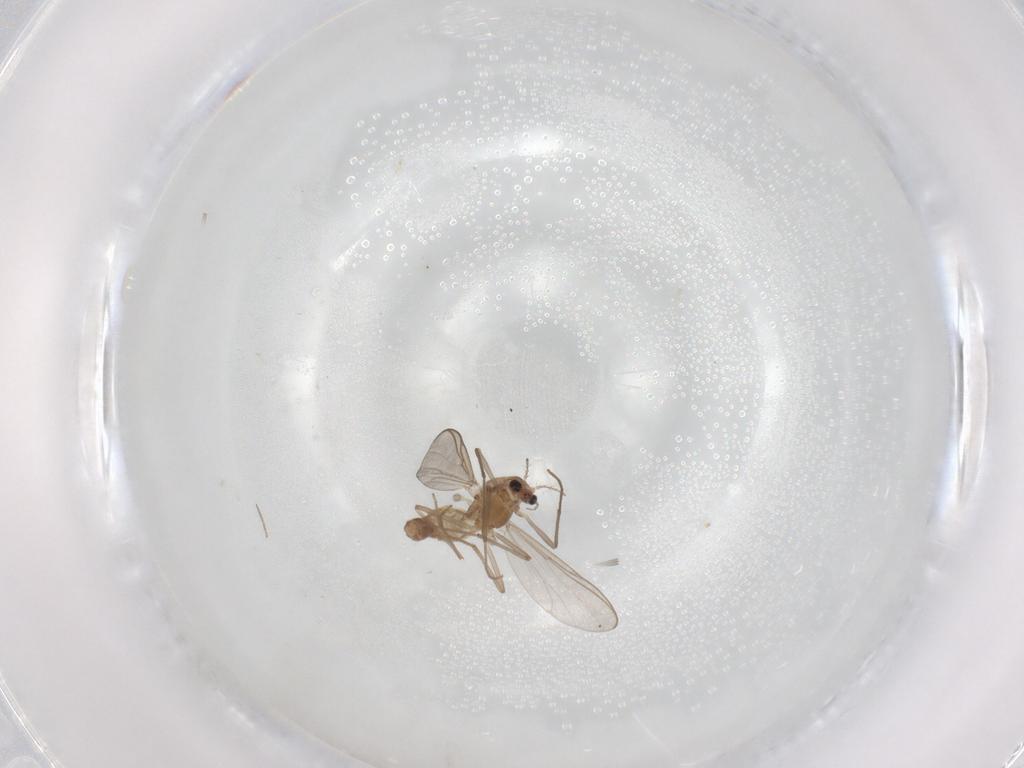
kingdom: Animalia
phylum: Arthropoda
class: Insecta
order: Diptera
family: Chironomidae
